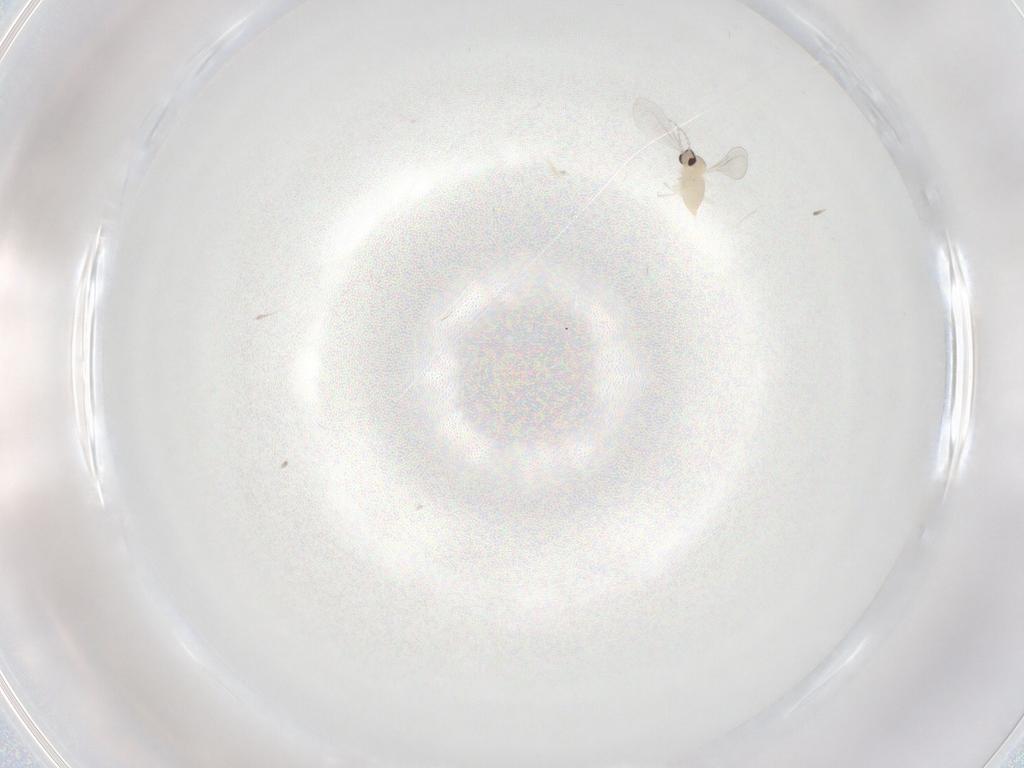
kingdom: Animalia
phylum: Arthropoda
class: Insecta
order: Diptera
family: Cecidomyiidae
